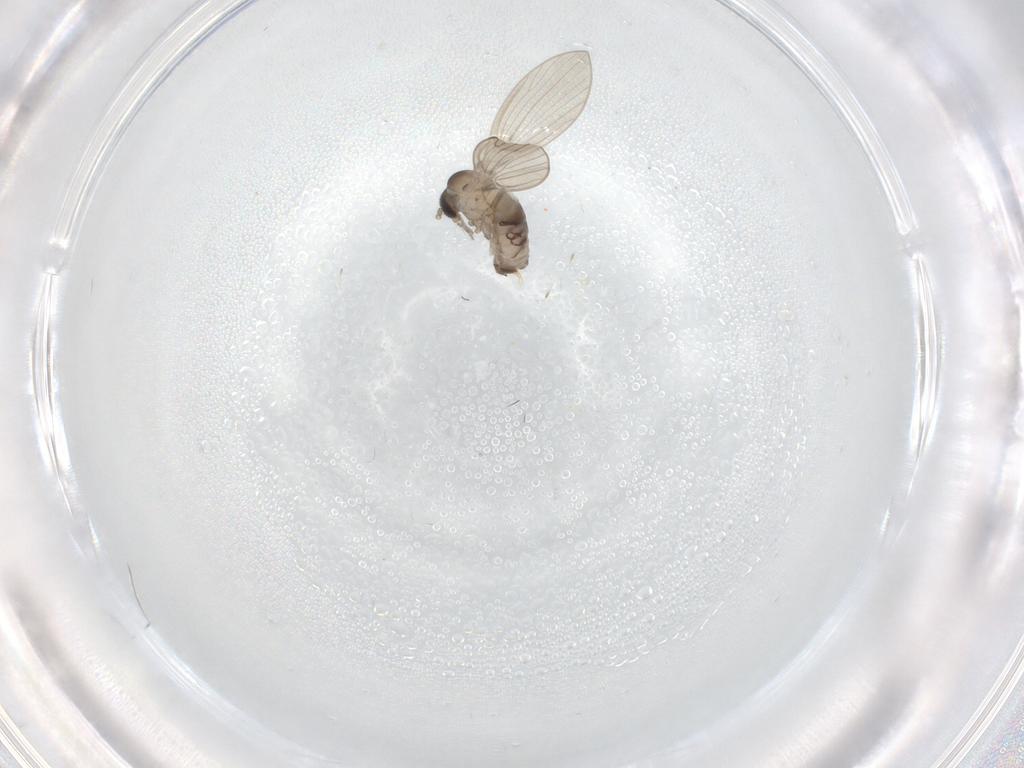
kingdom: Animalia
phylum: Arthropoda
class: Insecta
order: Diptera
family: Psychodidae
